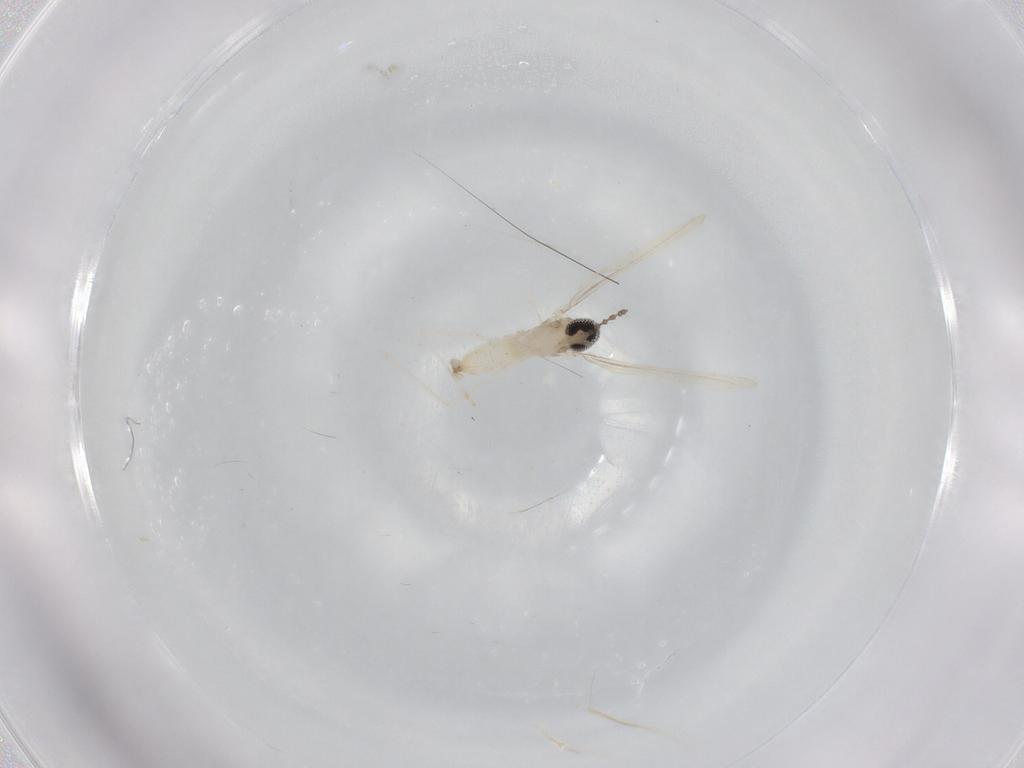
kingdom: Animalia
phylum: Arthropoda
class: Insecta
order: Diptera
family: Cecidomyiidae
